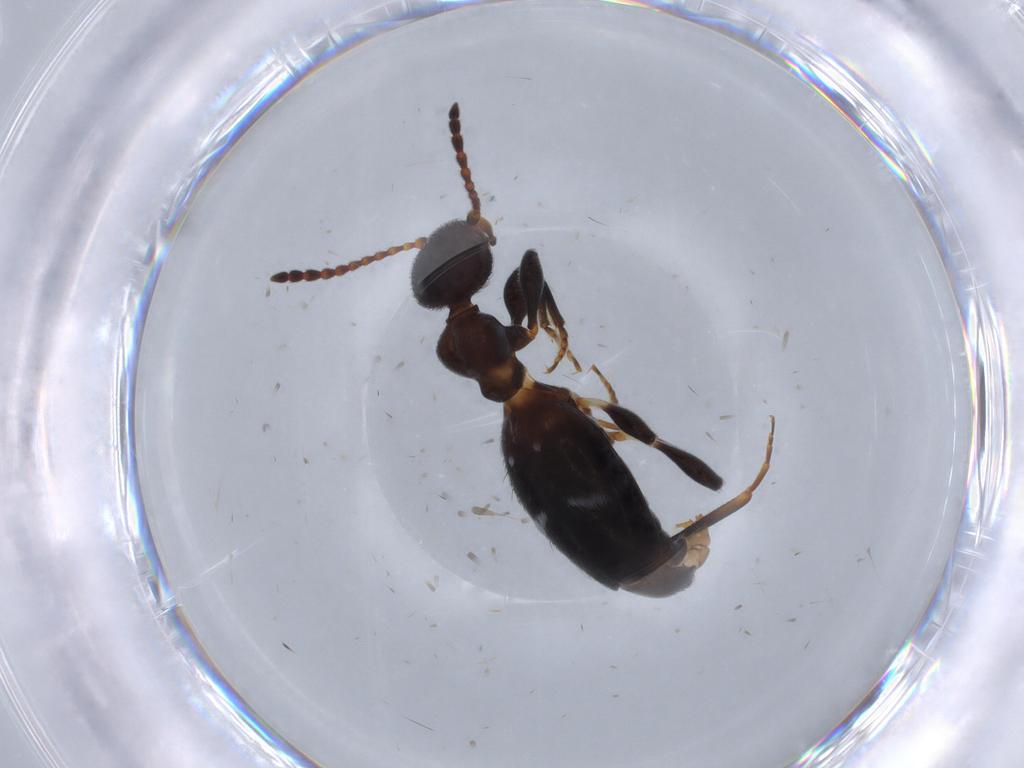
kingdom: Animalia
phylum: Arthropoda
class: Insecta
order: Coleoptera
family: Anthicidae
